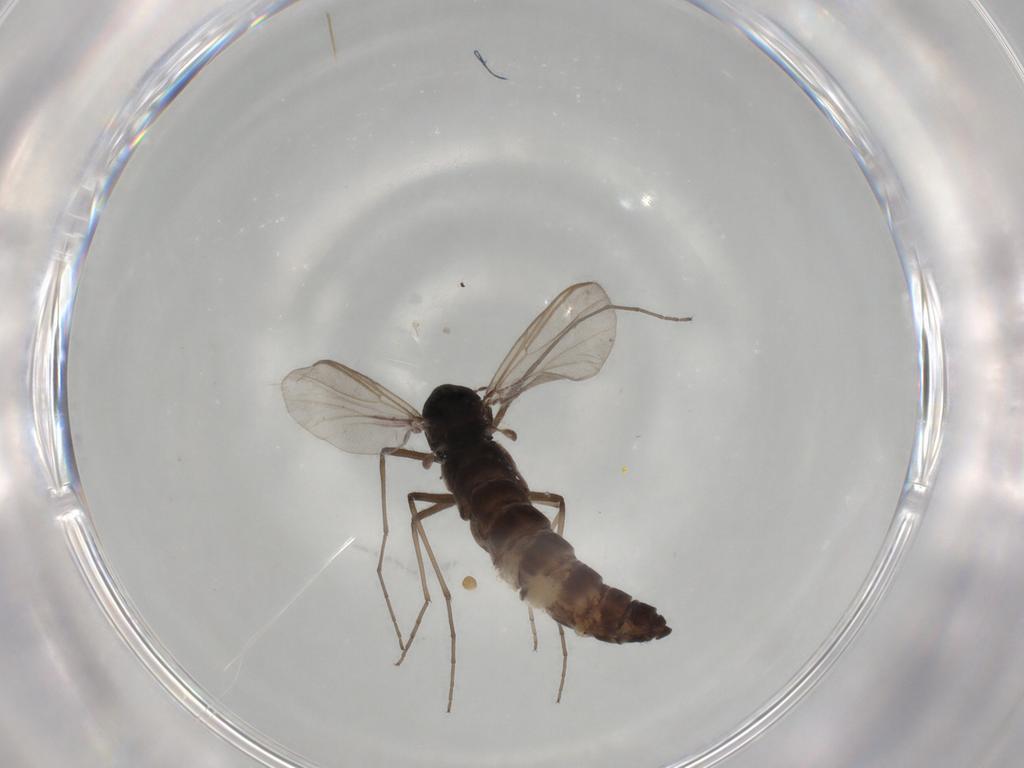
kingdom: Animalia
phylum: Arthropoda
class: Insecta
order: Diptera
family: Chironomidae
